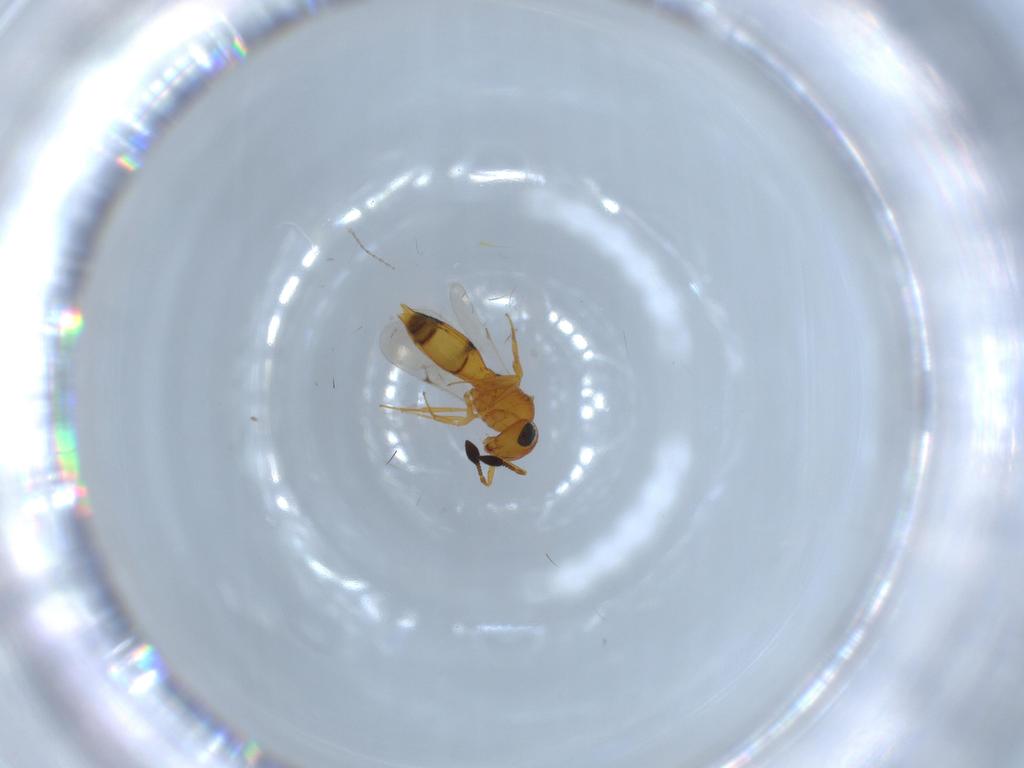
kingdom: Animalia
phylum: Arthropoda
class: Insecta
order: Hymenoptera
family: Scelionidae
